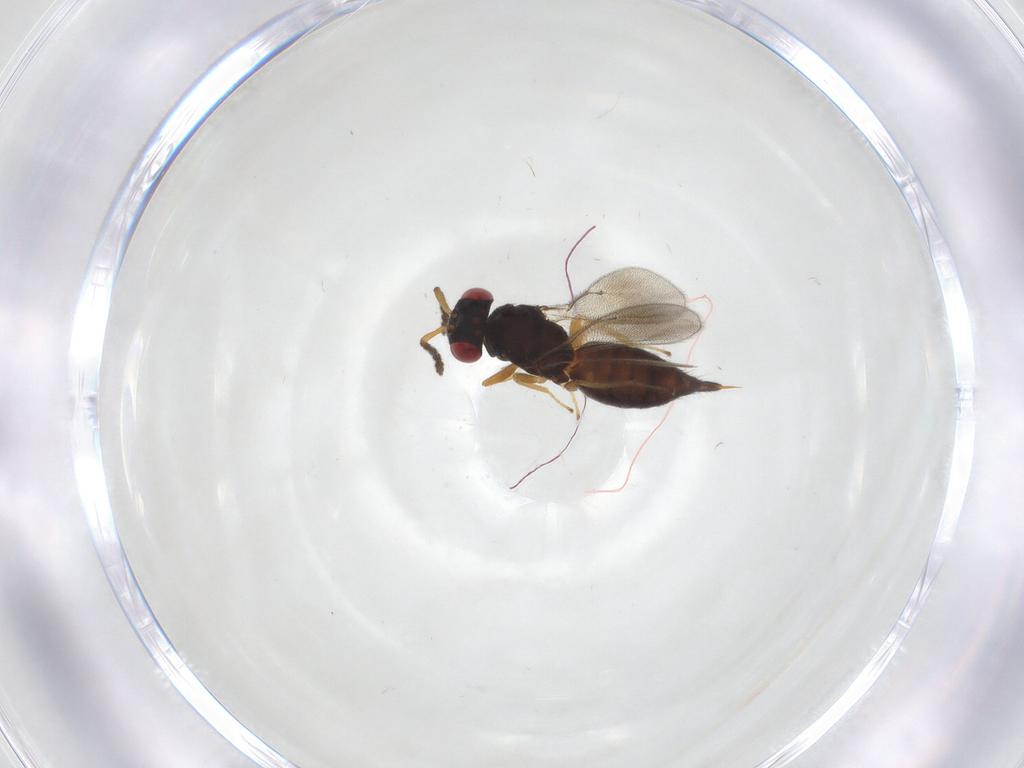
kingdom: Animalia
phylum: Arthropoda
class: Insecta
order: Hymenoptera
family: Eulophidae
